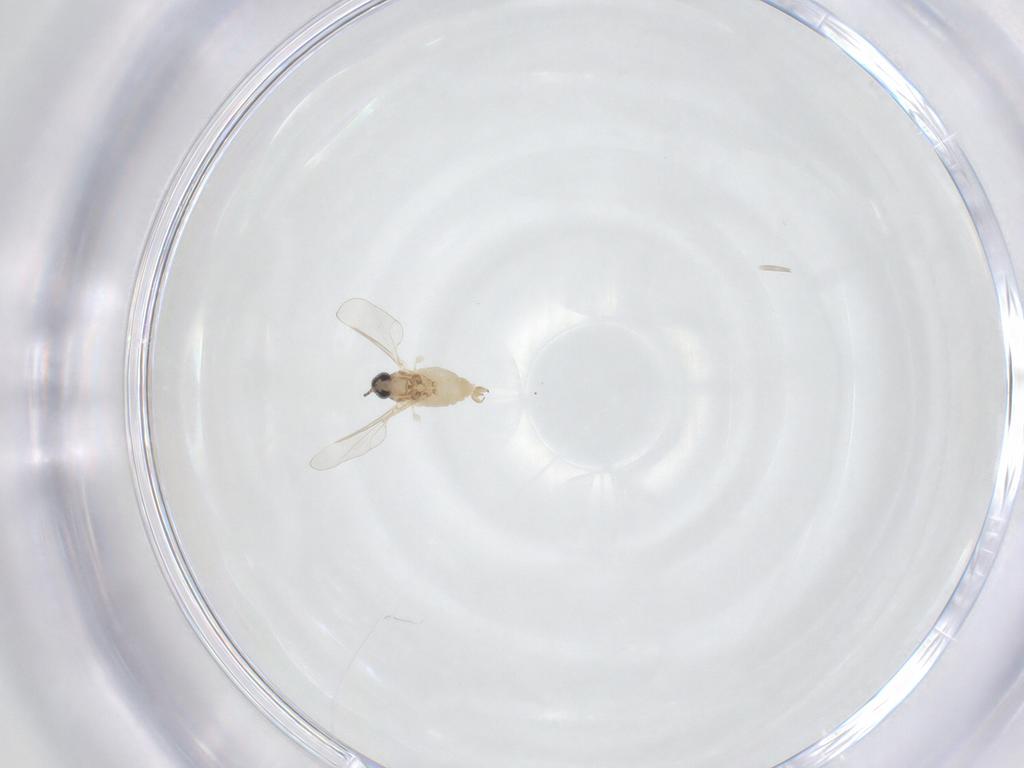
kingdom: Animalia
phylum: Arthropoda
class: Insecta
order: Diptera
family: Cecidomyiidae
